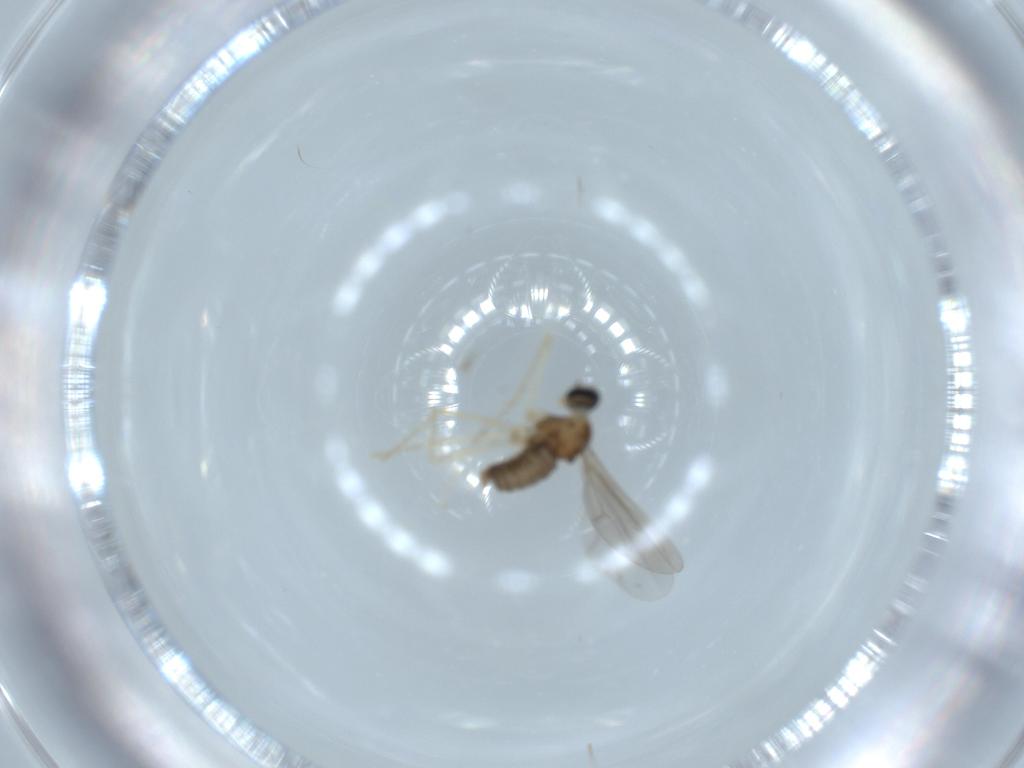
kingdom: Animalia
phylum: Arthropoda
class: Insecta
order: Diptera
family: Cecidomyiidae
